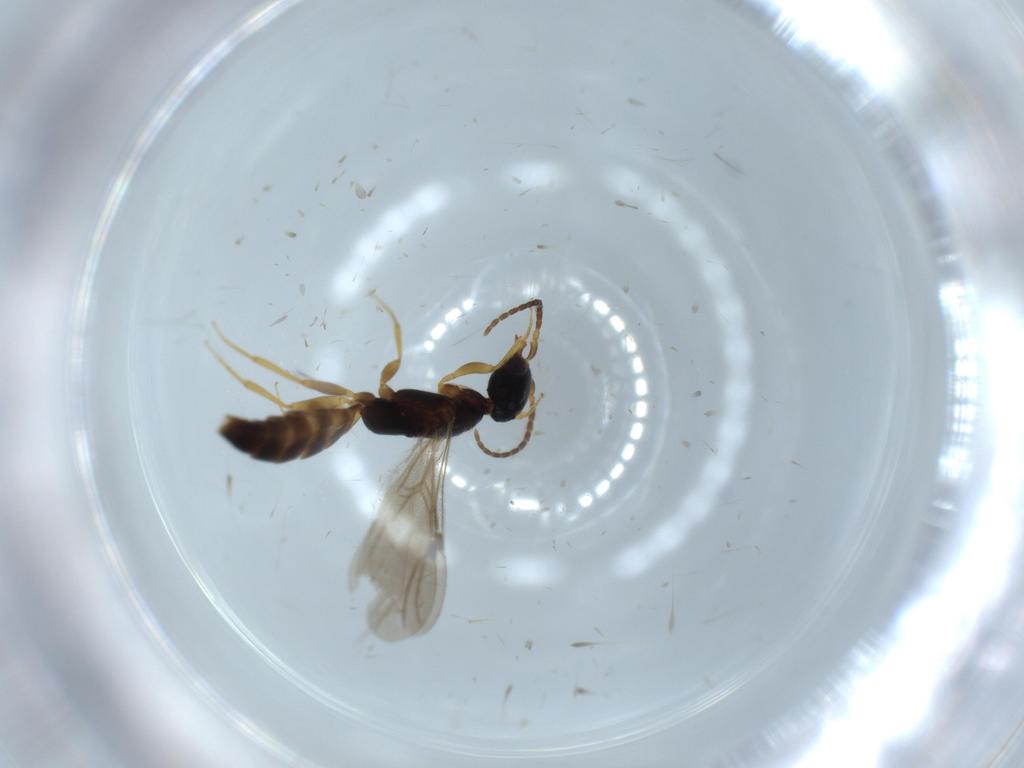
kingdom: Animalia
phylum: Arthropoda
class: Insecta
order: Hymenoptera
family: Bethylidae
